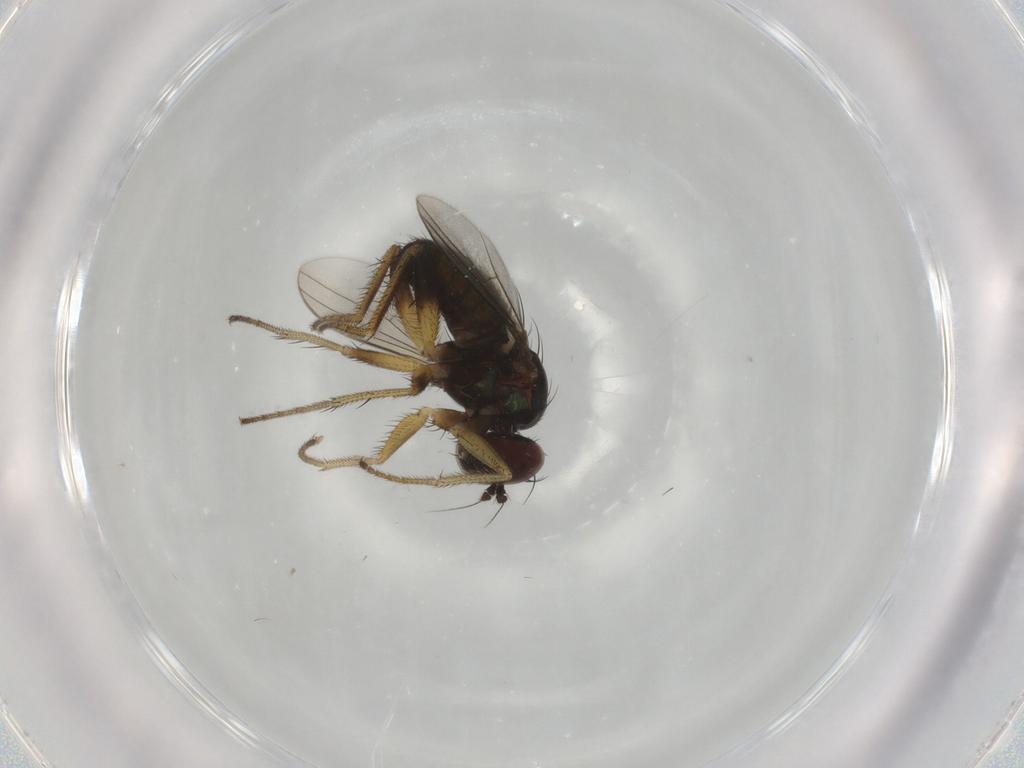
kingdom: Animalia
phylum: Arthropoda
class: Insecta
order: Diptera
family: Dolichopodidae
